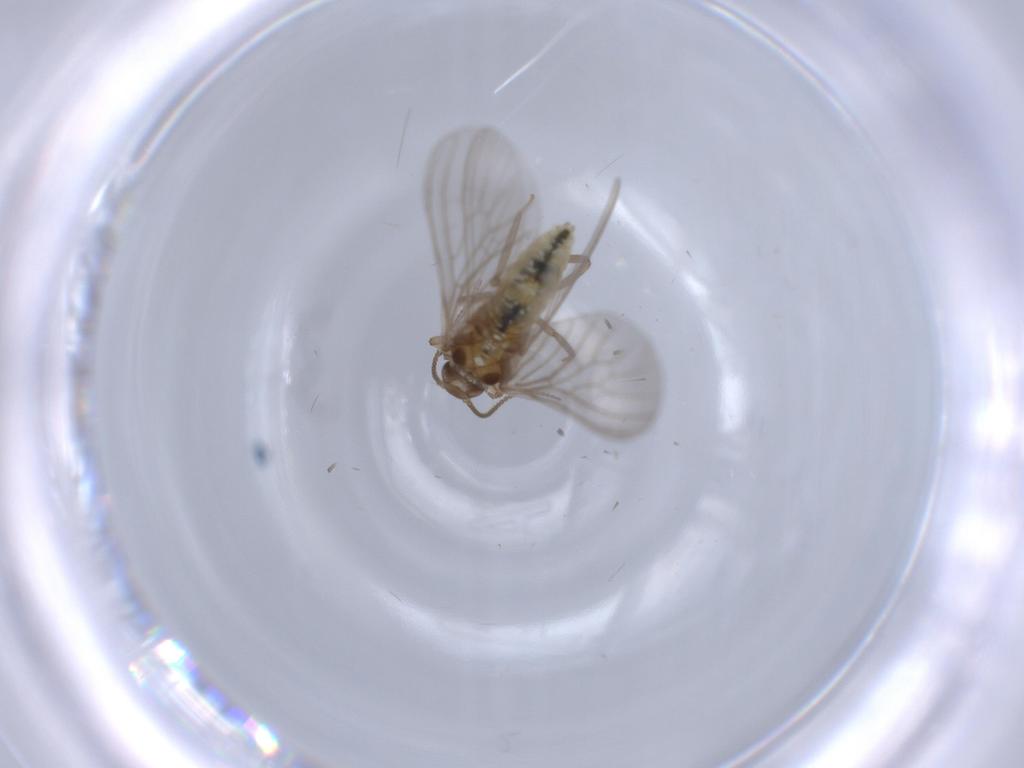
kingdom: Animalia
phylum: Arthropoda
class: Insecta
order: Neuroptera
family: Coniopterygidae
